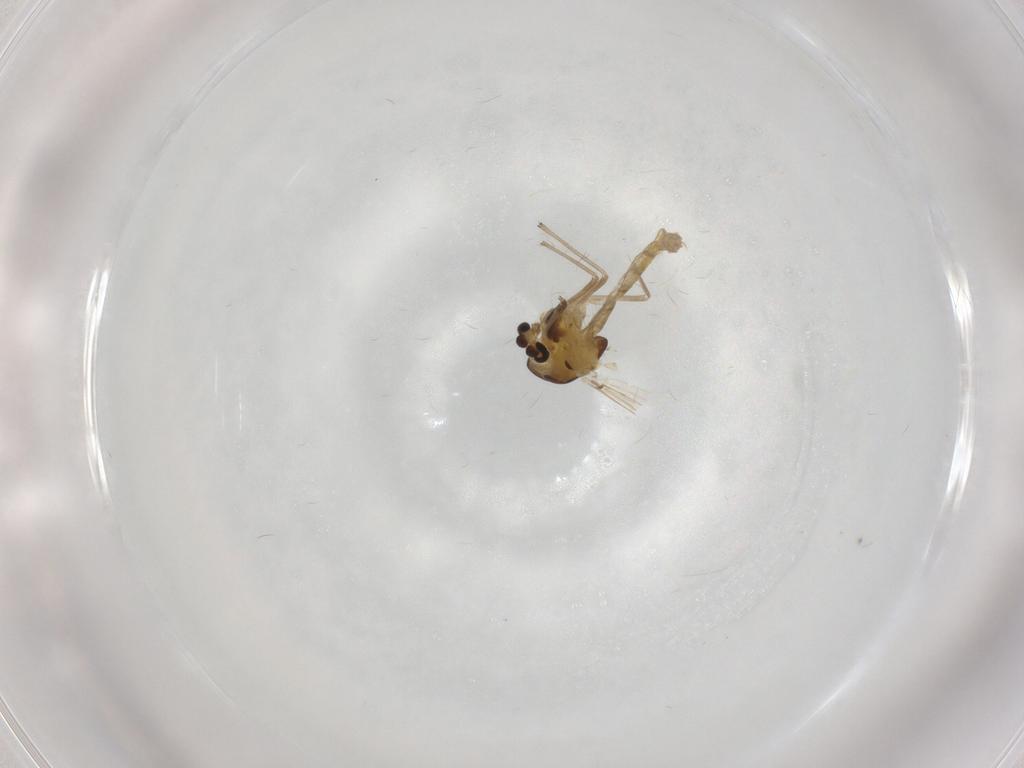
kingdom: Animalia
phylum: Arthropoda
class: Insecta
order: Diptera
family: Chironomidae
